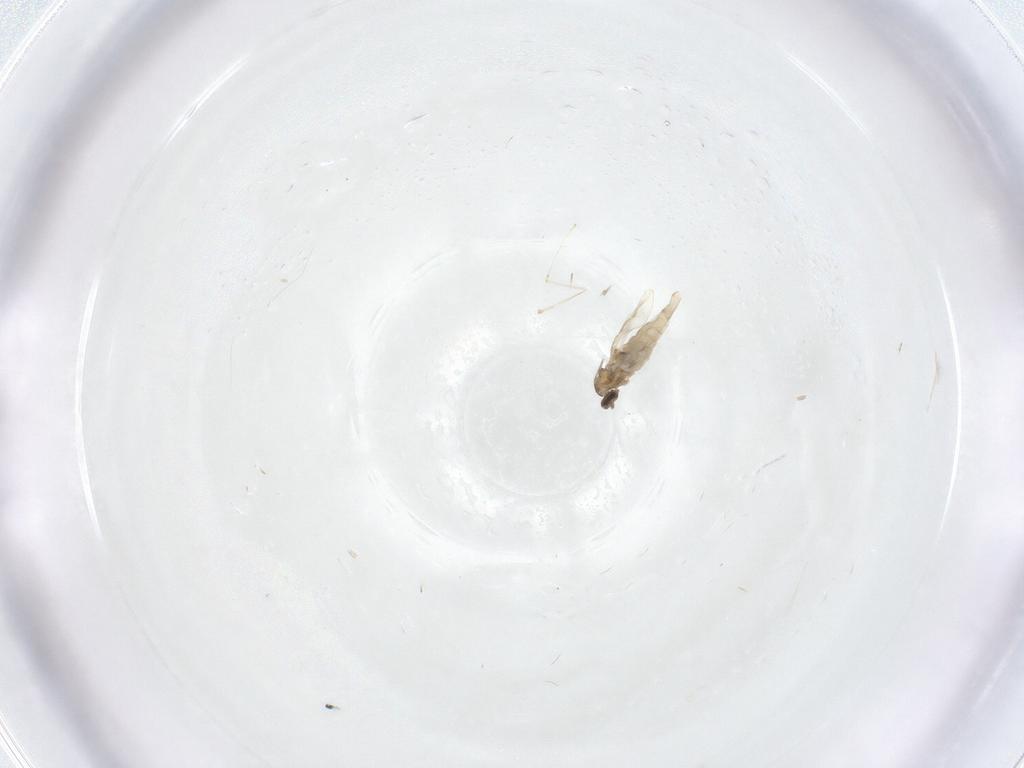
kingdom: Animalia
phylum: Arthropoda
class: Insecta
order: Diptera
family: Cecidomyiidae
